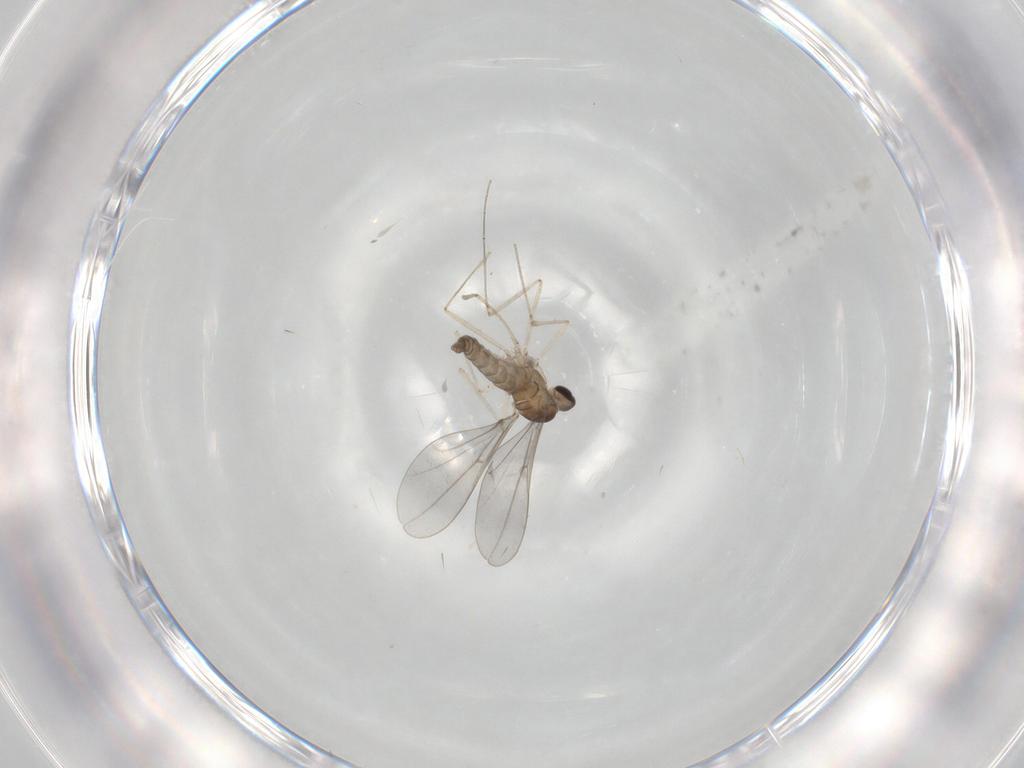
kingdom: Animalia
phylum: Arthropoda
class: Insecta
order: Diptera
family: Cecidomyiidae
